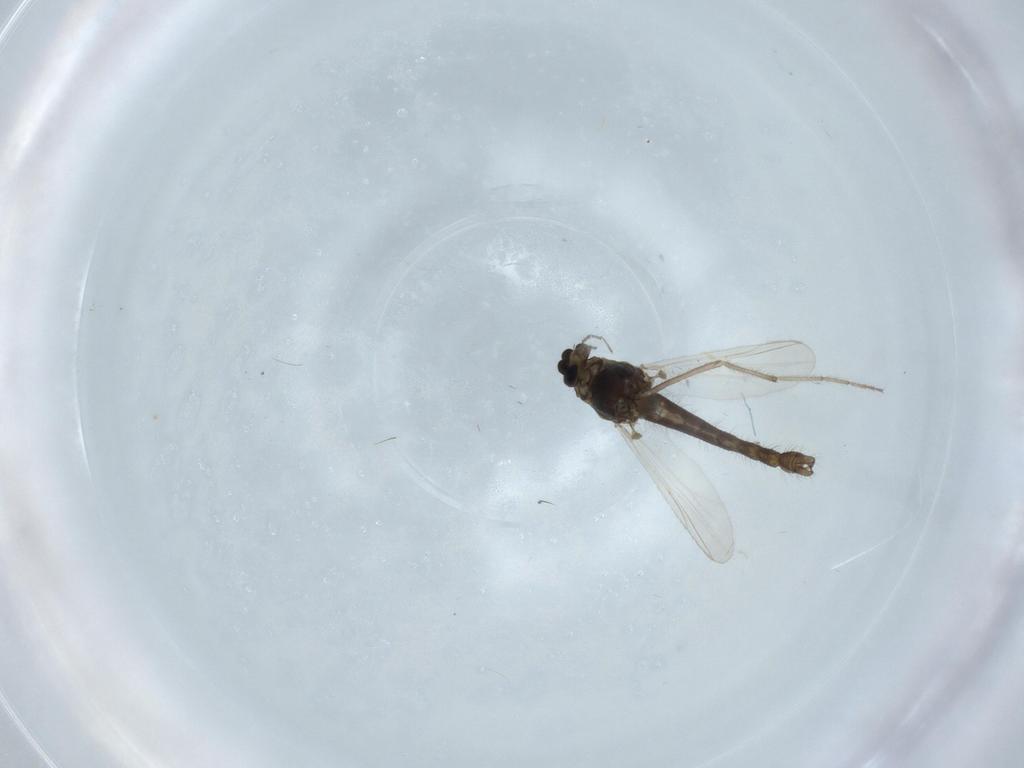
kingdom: Animalia
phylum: Arthropoda
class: Insecta
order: Diptera
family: Chironomidae
